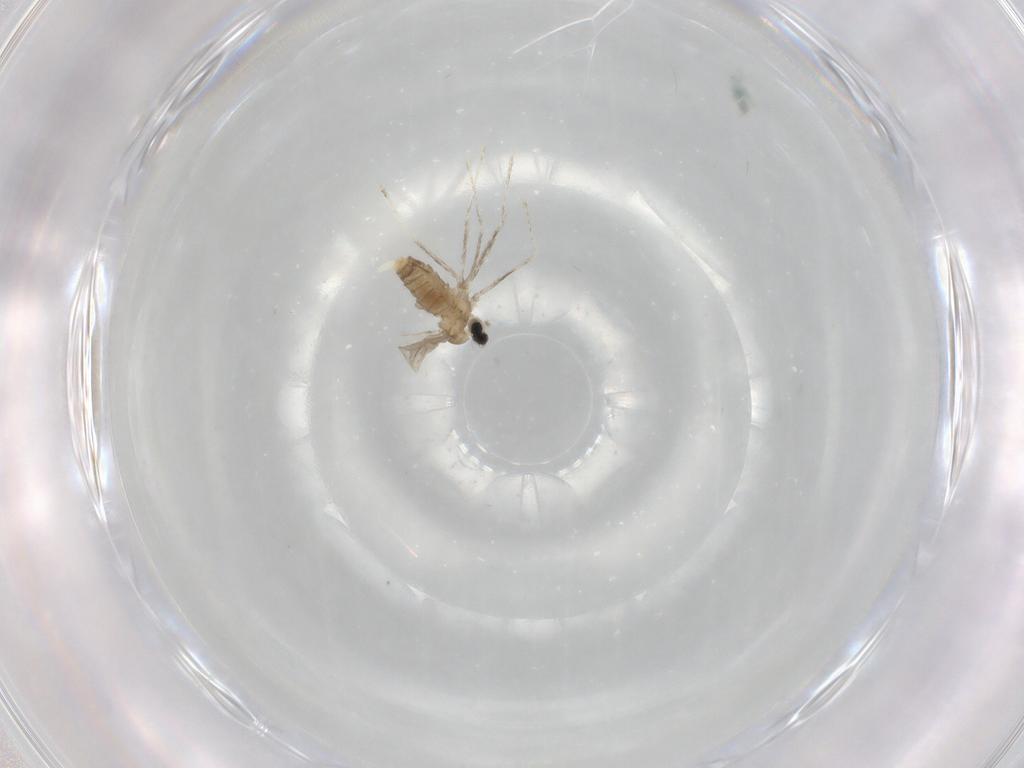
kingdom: Animalia
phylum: Arthropoda
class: Insecta
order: Diptera
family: Cecidomyiidae
